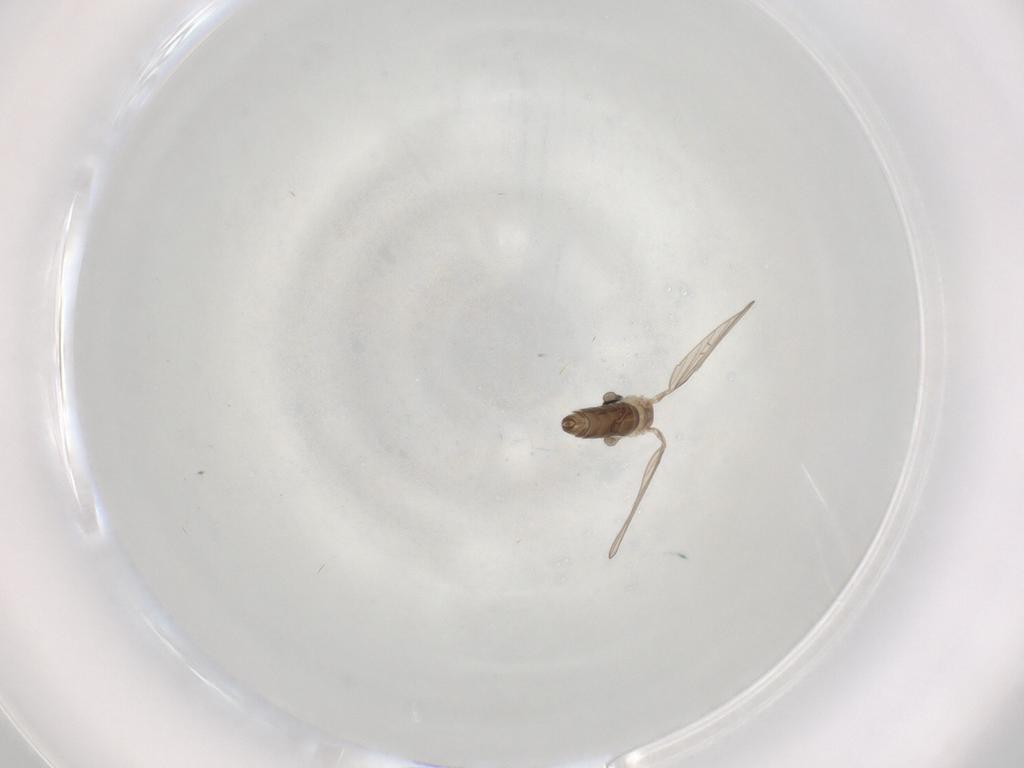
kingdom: Animalia
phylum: Arthropoda
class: Insecta
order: Diptera
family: Psychodidae
